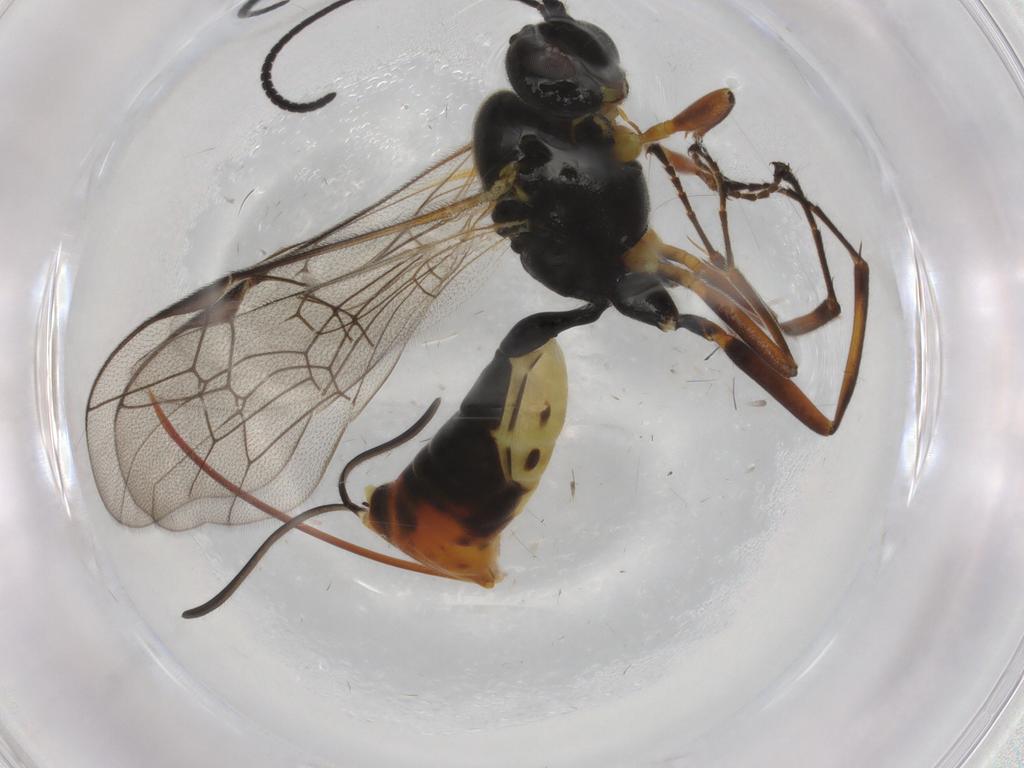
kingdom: Animalia
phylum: Arthropoda
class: Insecta
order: Hymenoptera
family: Ichneumonidae
